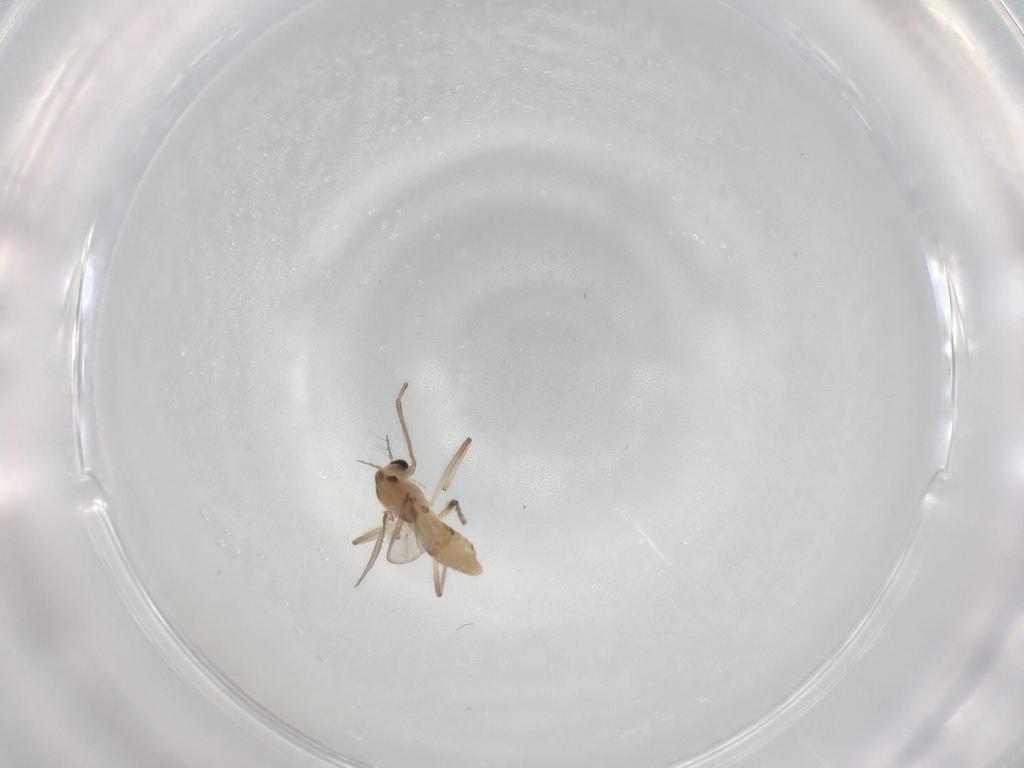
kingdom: Animalia
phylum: Arthropoda
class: Insecta
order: Diptera
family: Chironomidae
